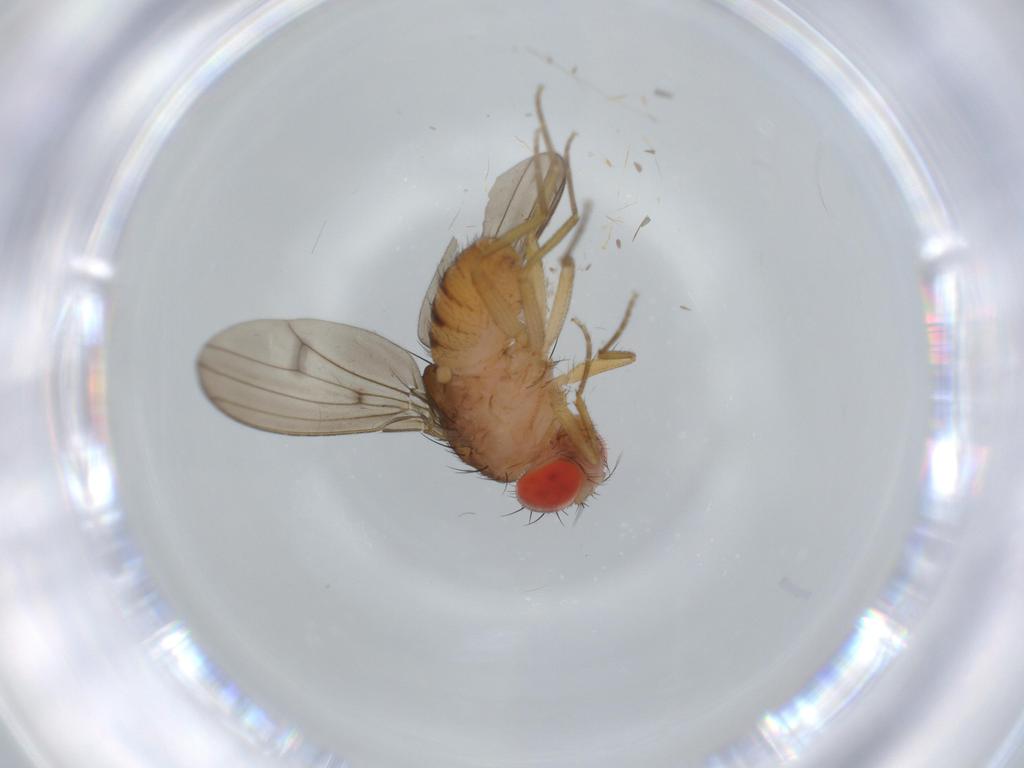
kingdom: Animalia
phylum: Arthropoda
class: Insecta
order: Diptera
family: Drosophilidae
